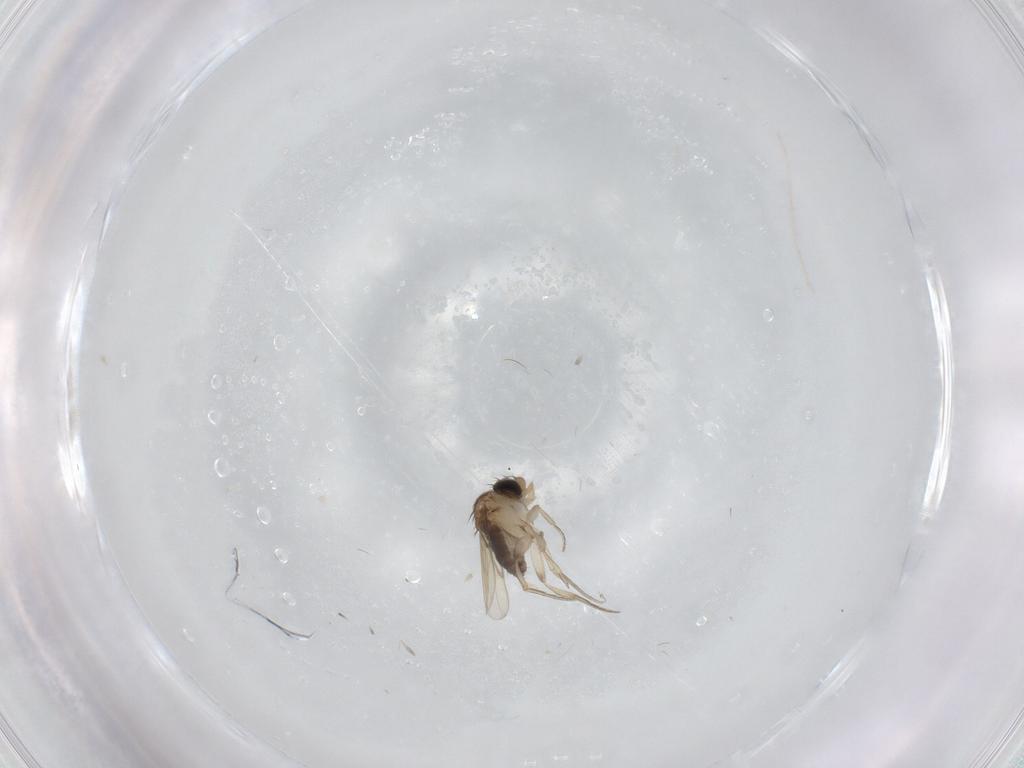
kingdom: Animalia
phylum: Arthropoda
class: Insecta
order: Diptera
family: Phoridae
